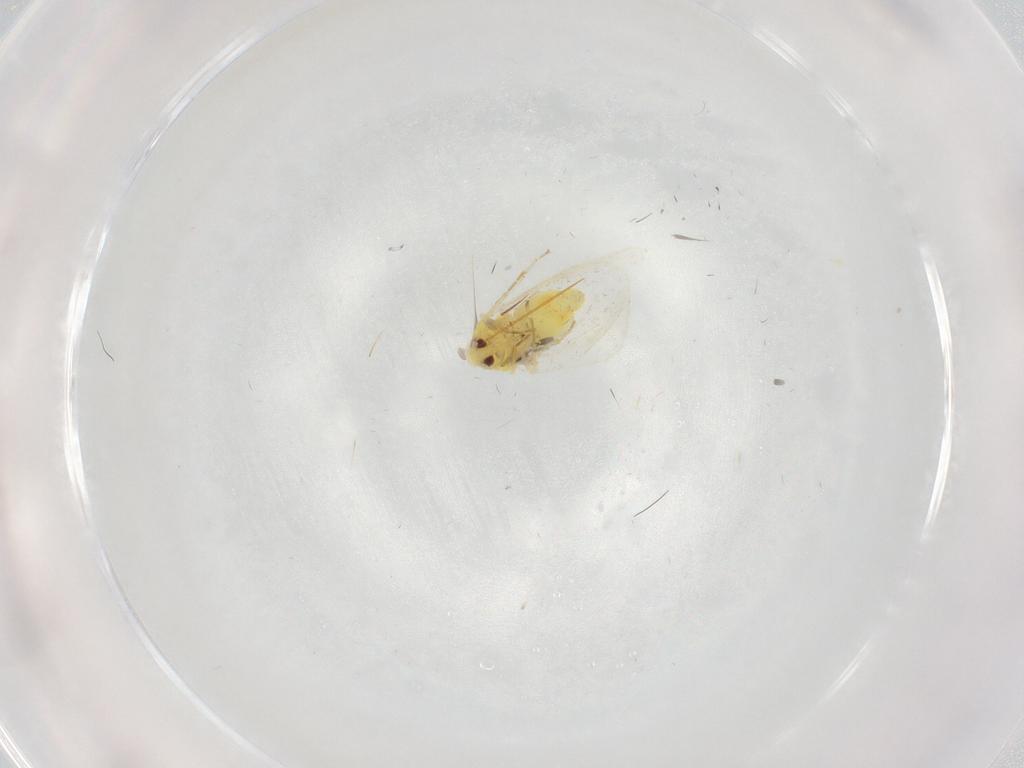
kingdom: Animalia
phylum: Arthropoda
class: Insecta
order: Hemiptera
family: Aleyrodidae
